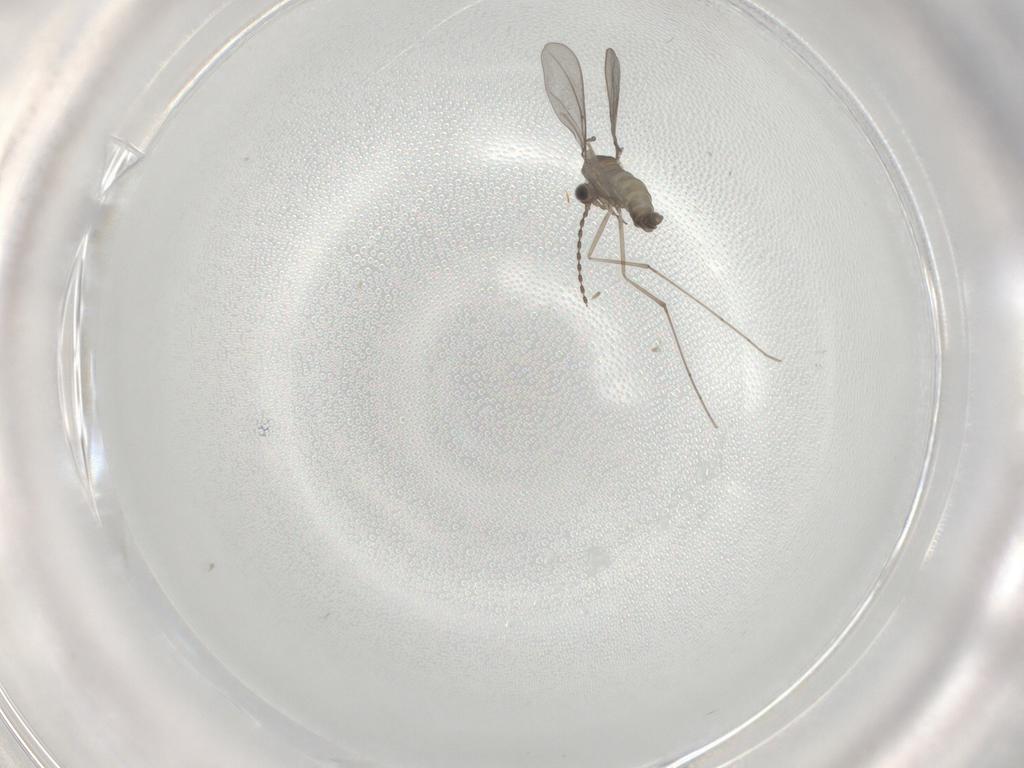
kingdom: Animalia
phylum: Arthropoda
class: Insecta
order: Diptera
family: Cecidomyiidae
